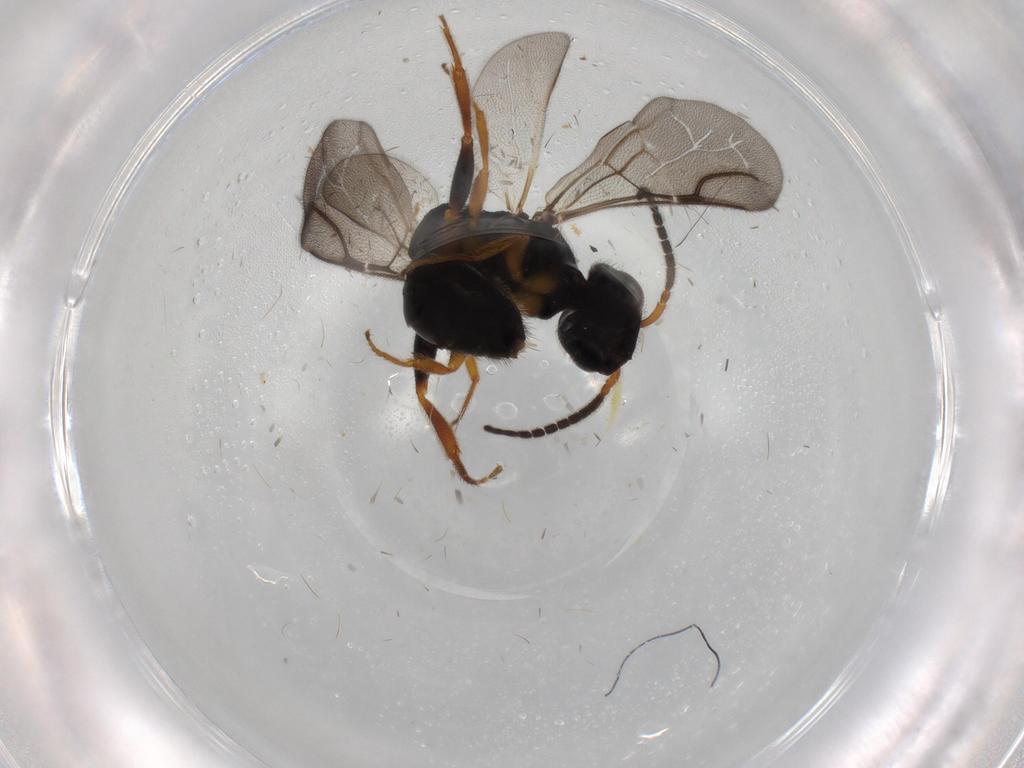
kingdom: Animalia
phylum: Arthropoda
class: Insecta
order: Hymenoptera
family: Bethylidae
